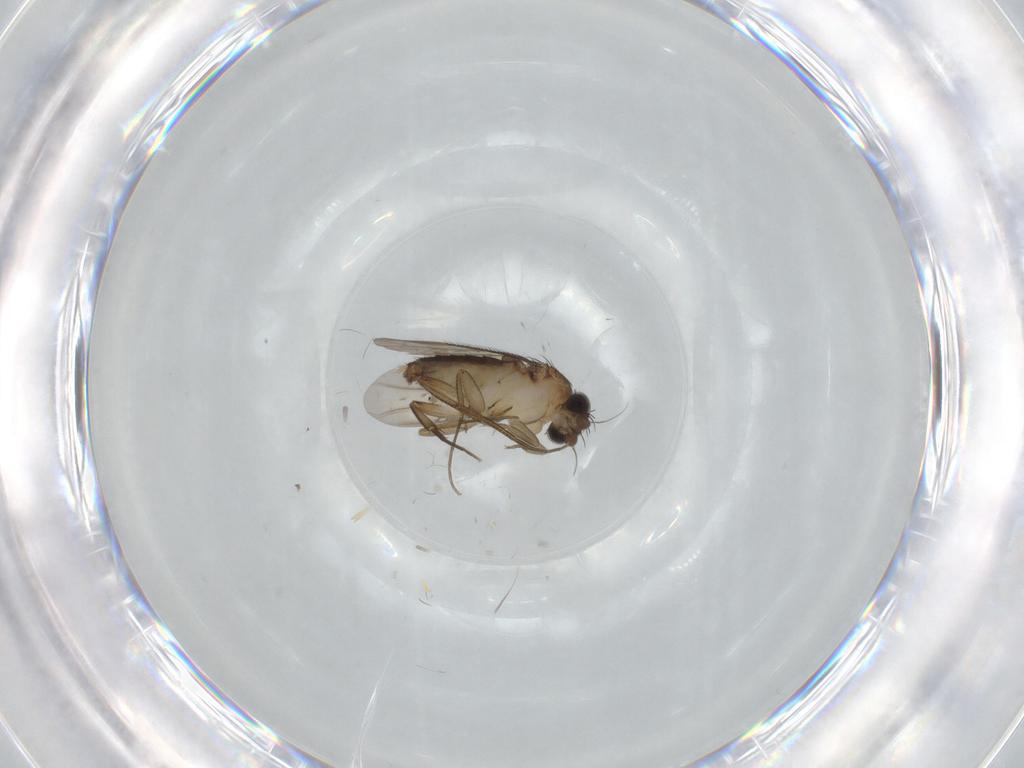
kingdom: Animalia
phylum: Arthropoda
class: Insecta
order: Diptera
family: Phoridae
